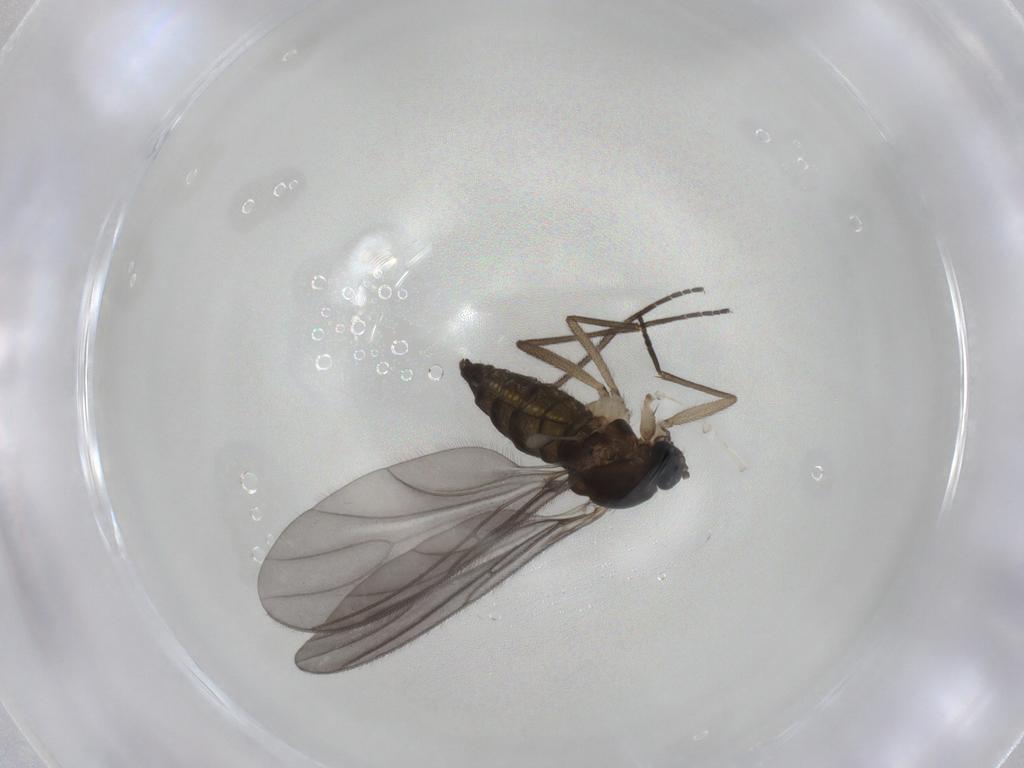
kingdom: Animalia
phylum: Arthropoda
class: Insecta
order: Diptera
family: Sciaridae
